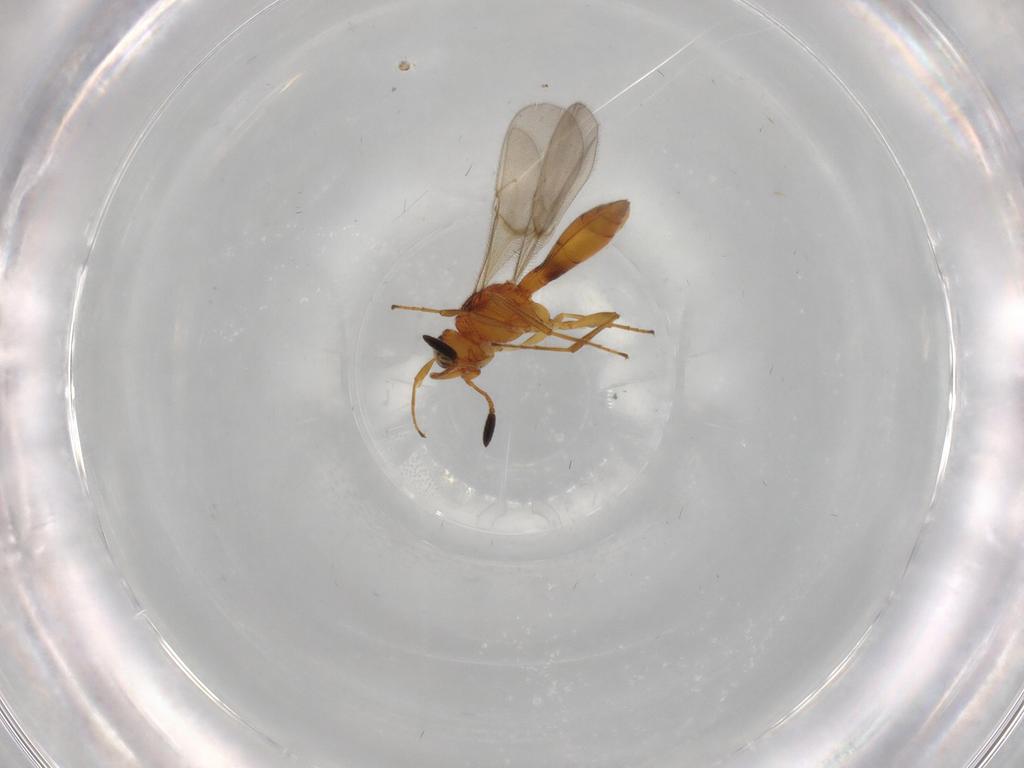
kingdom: Animalia
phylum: Arthropoda
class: Insecta
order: Hymenoptera
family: Scelionidae
